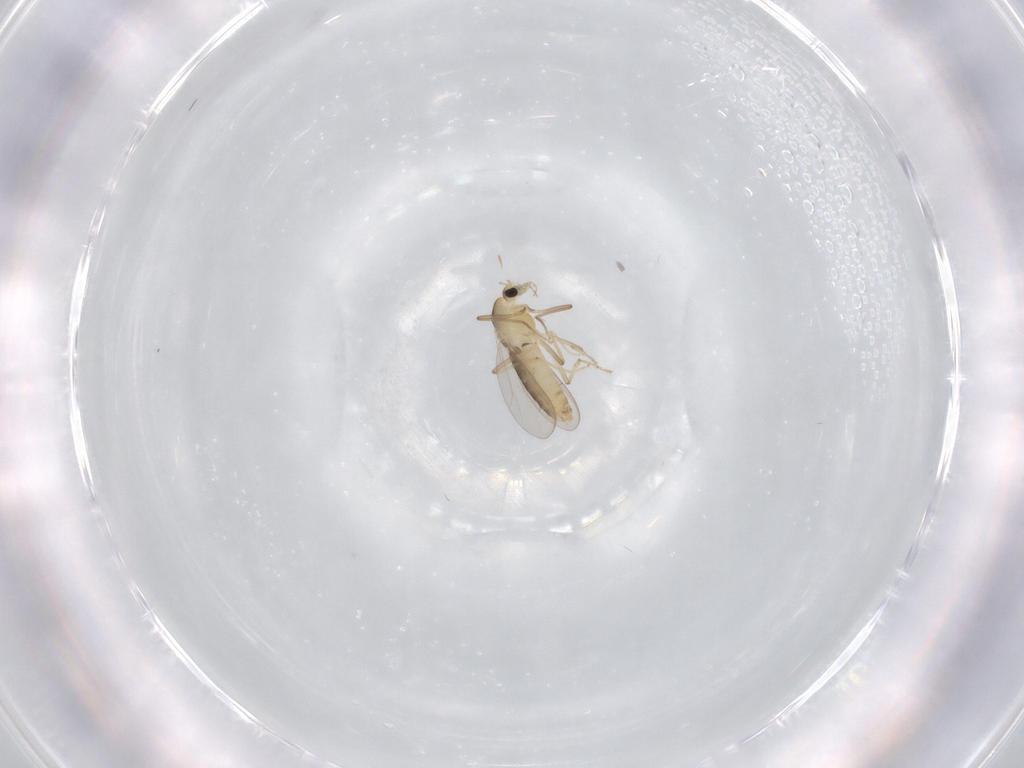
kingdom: Animalia
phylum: Arthropoda
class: Insecta
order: Diptera
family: Chironomidae
